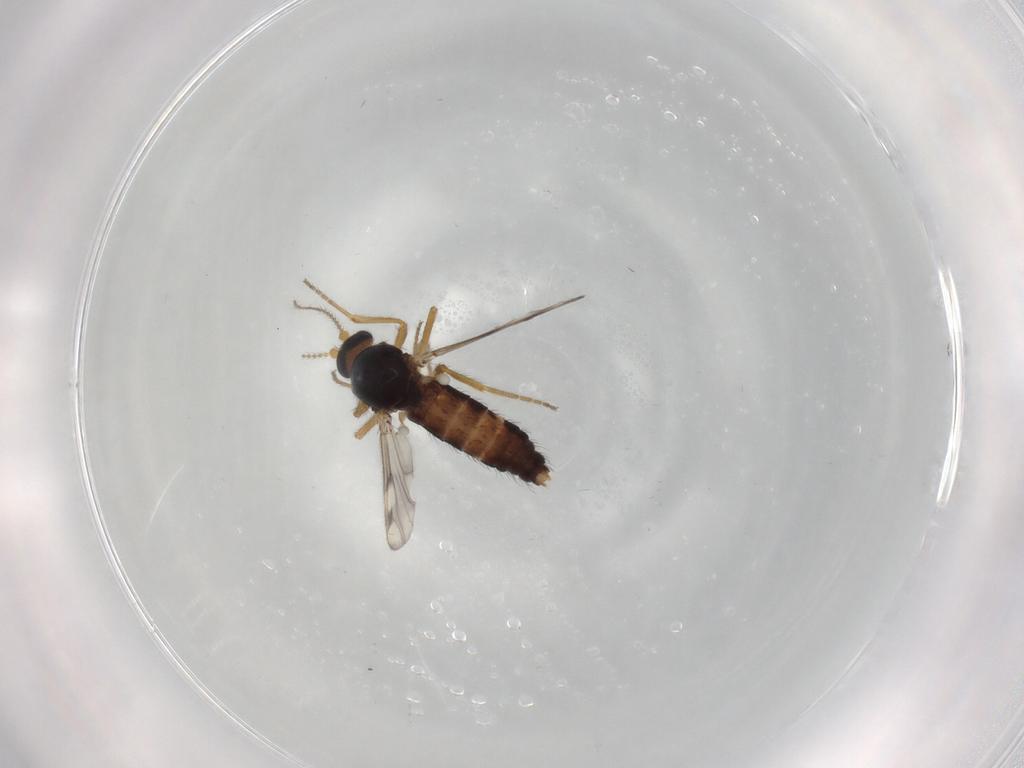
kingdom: Animalia
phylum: Arthropoda
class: Insecta
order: Diptera
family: Ceratopogonidae
